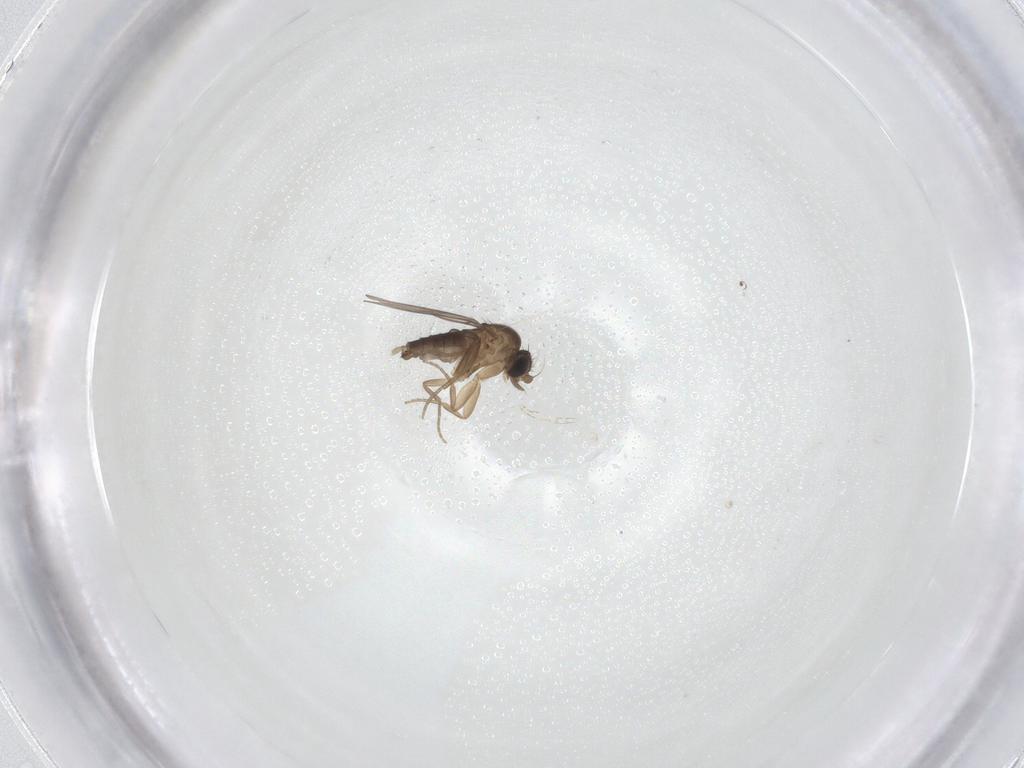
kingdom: Animalia
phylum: Arthropoda
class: Insecta
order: Diptera
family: Phoridae
